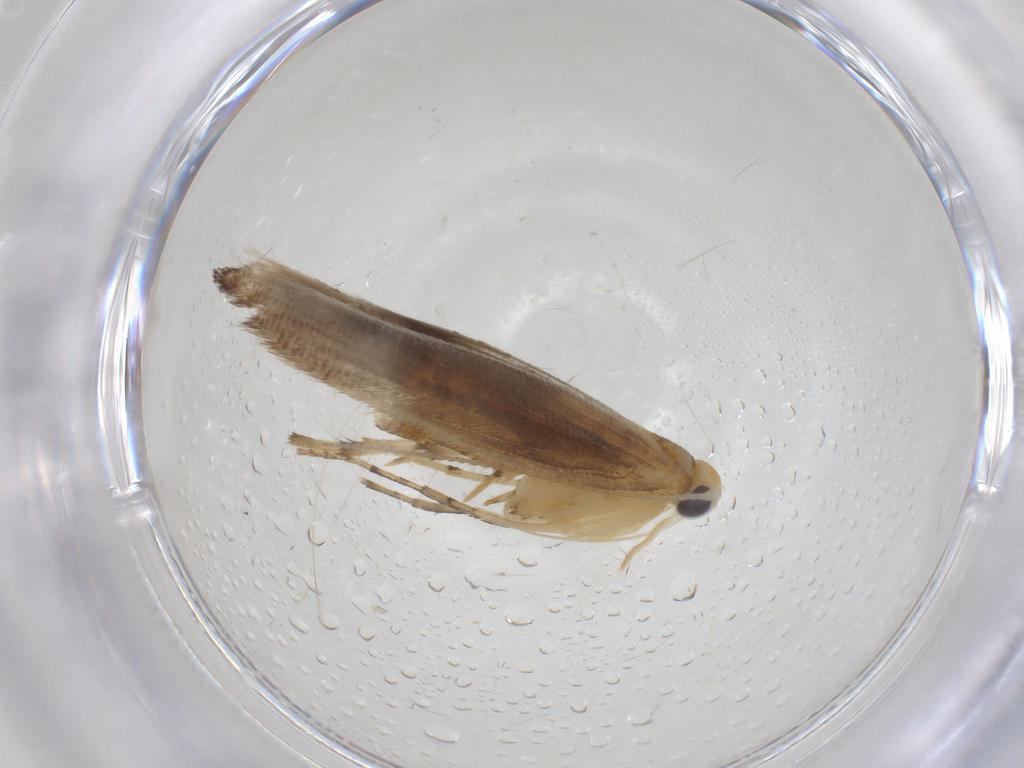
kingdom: Animalia
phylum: Arthropoda
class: Insecta
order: Lepidoptera
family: Argyresthiidae
